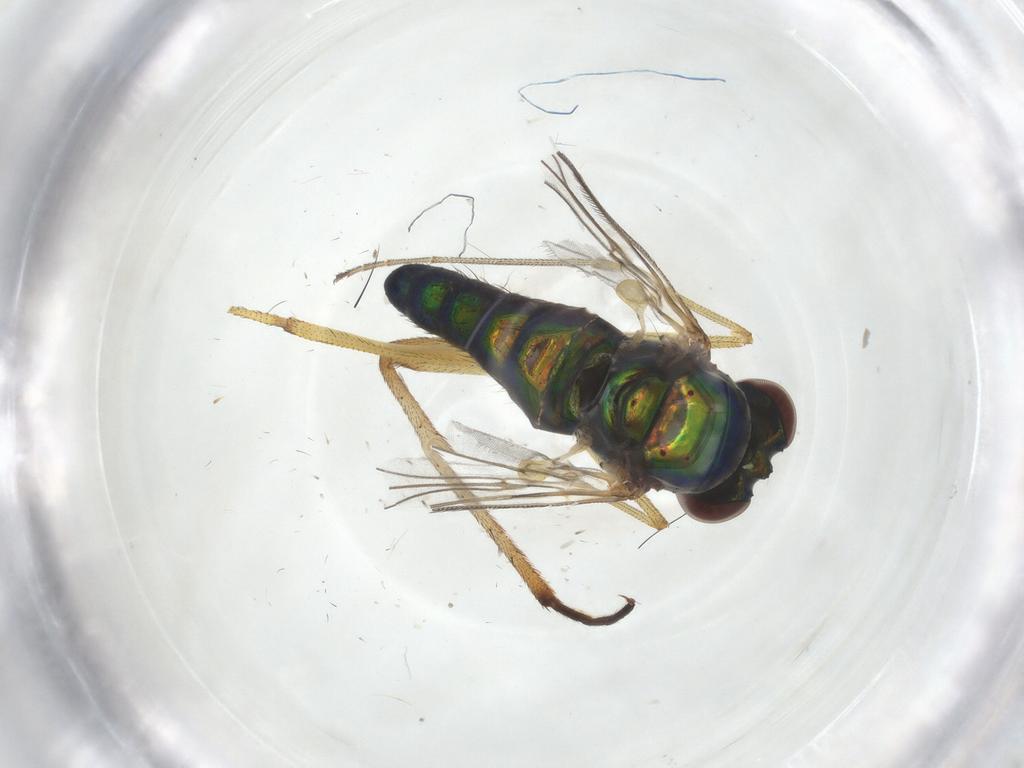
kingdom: Animalia
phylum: Arthropoda
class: Insecta
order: Diptera
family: Dolichopodidae
